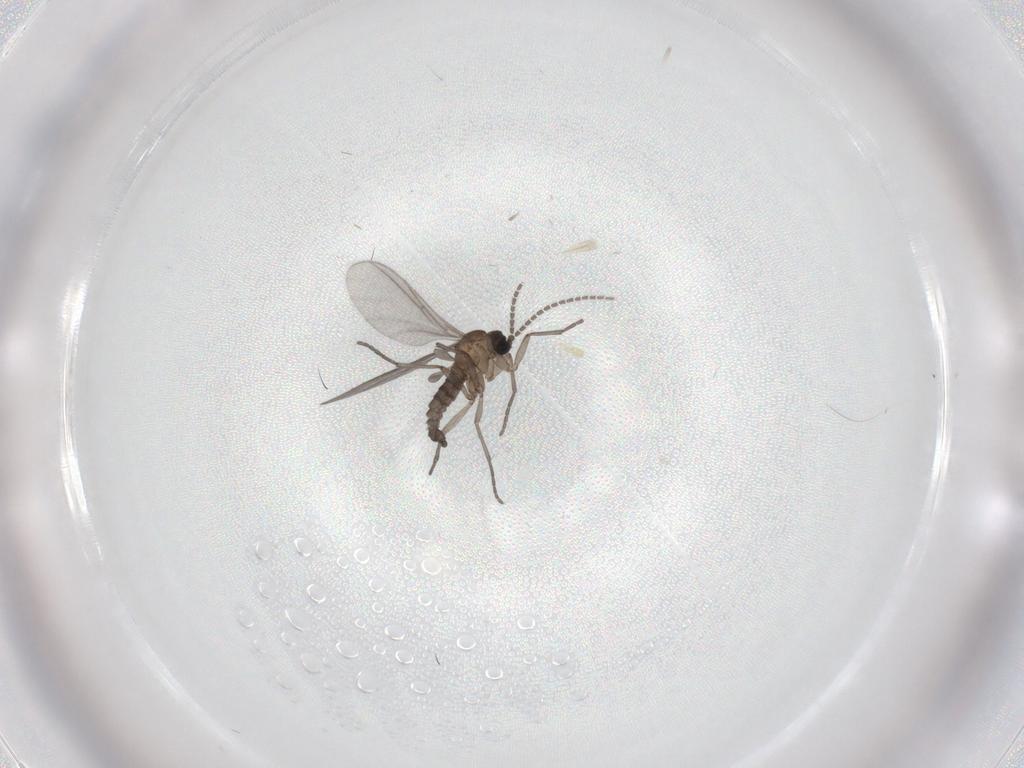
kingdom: Animalia
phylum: Arthropoda
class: Insecta
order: Diptera
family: Sciaridae
